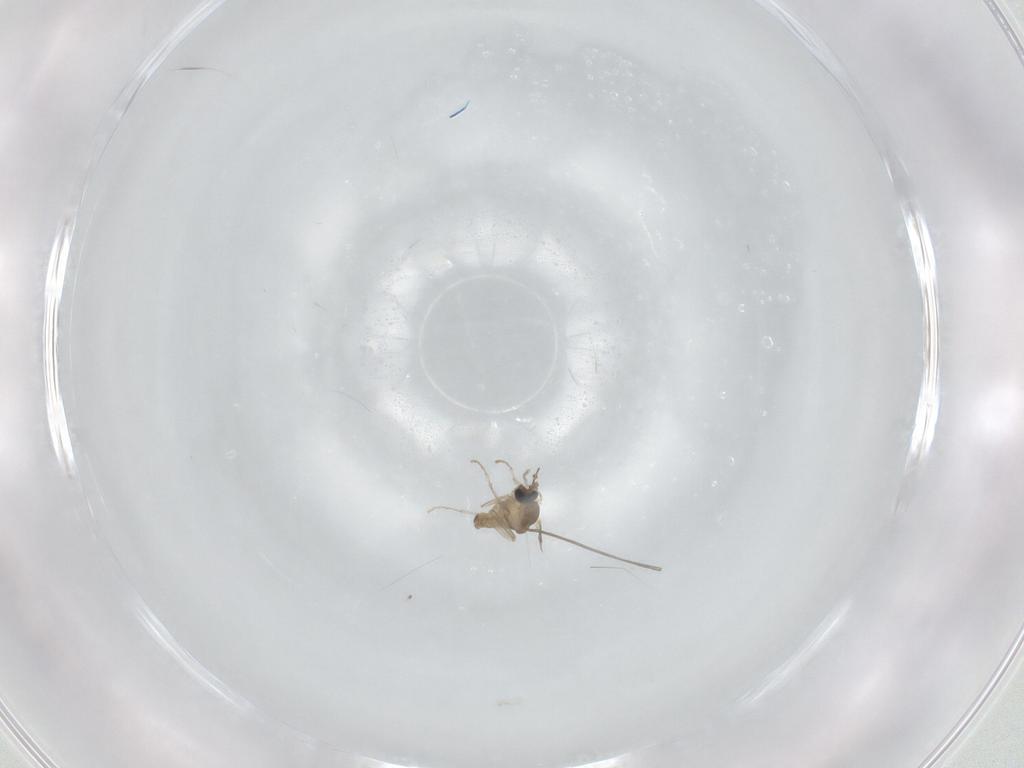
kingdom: Animalia
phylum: Arthropoda
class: Insecta
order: Diptera
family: Cecidomyiidae
